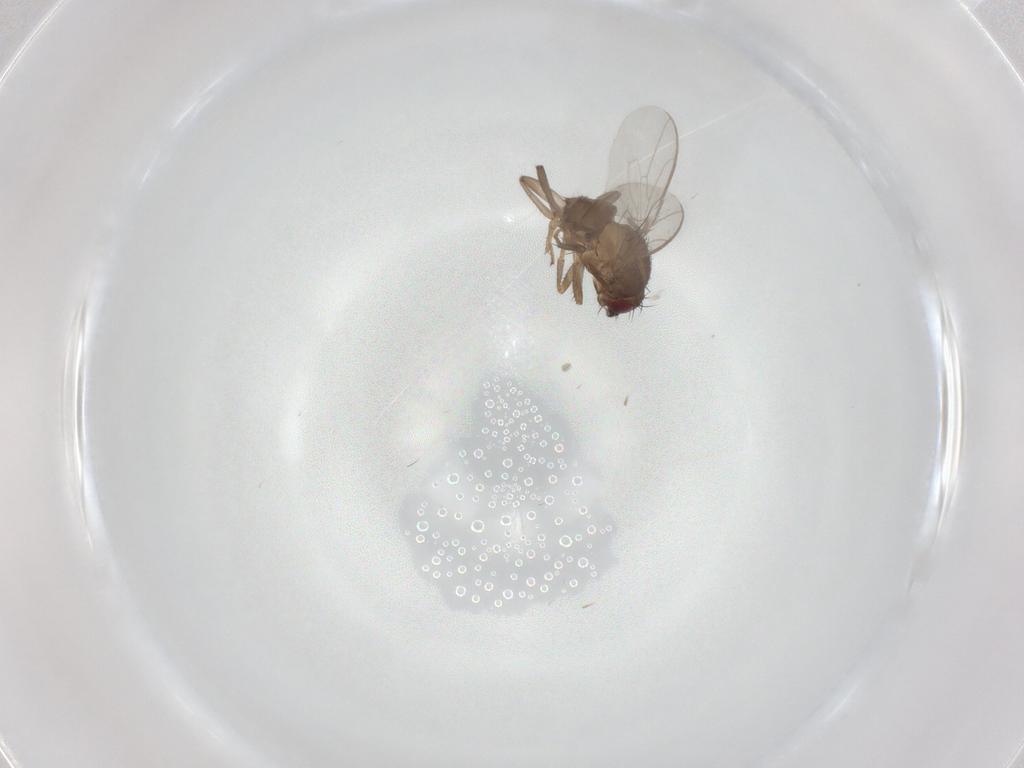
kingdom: Animalia
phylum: Arthropoda
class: Insecta
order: Diptera
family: Sphaeroceridae
